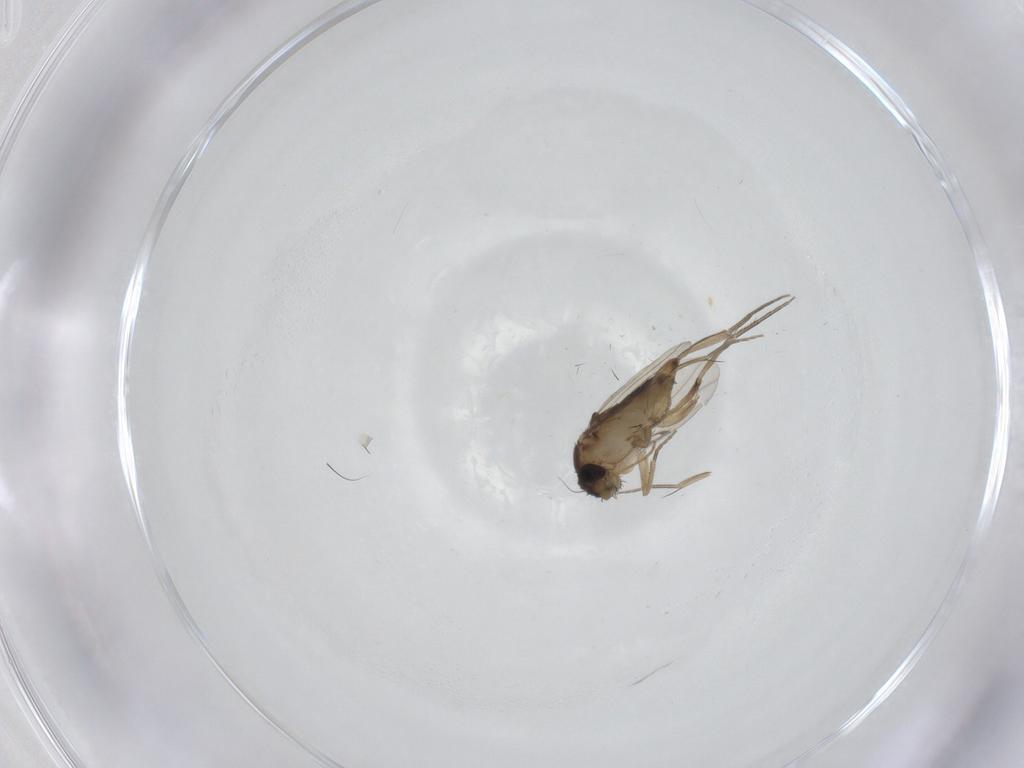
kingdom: Animalia
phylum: Arthropoda
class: Insecta
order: Diptera
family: Phoridae
